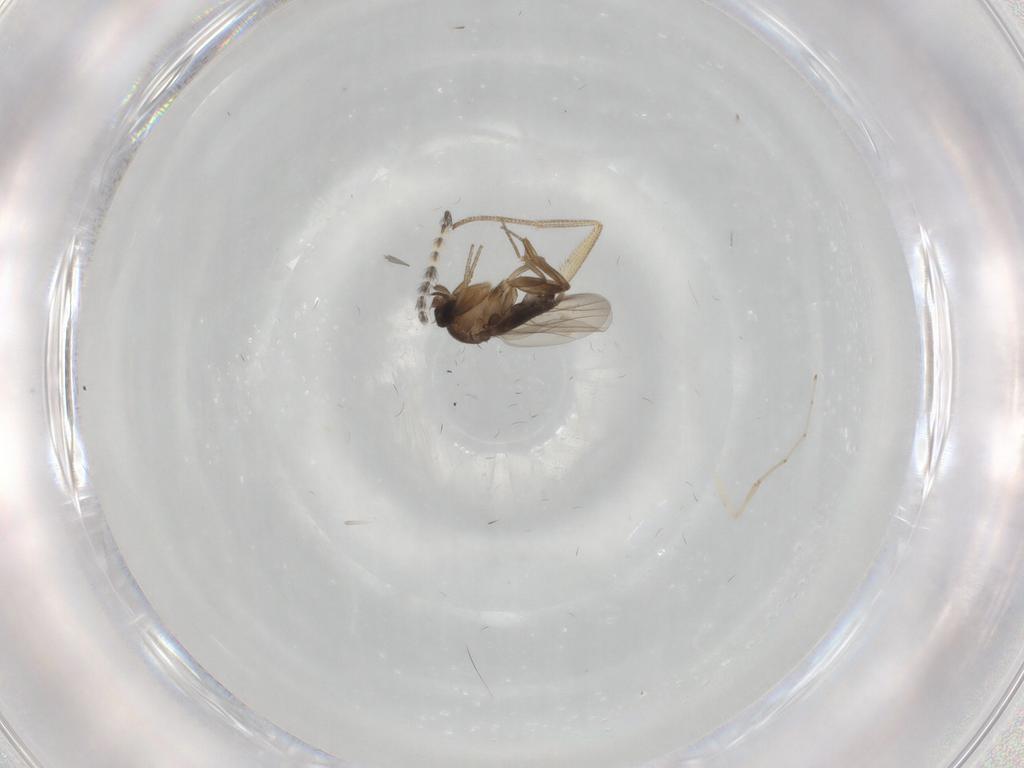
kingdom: Animalia
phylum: Arthropoda
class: Insecta
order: Diptera
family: Phoridae
